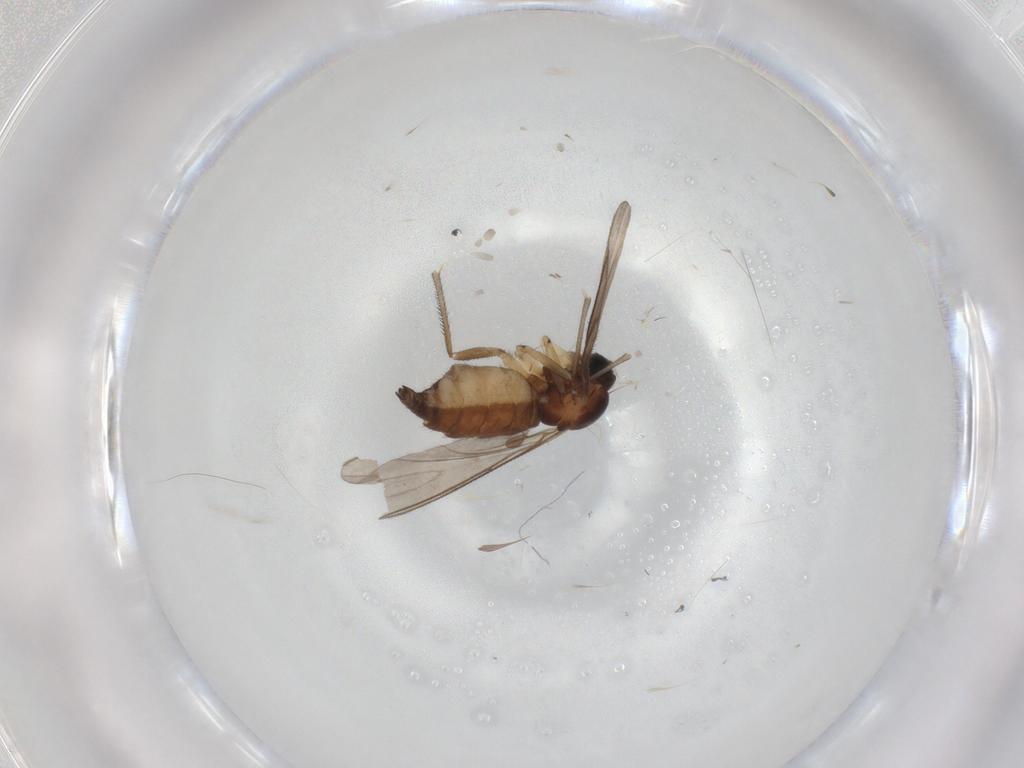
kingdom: Animalia
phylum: Arthropoda
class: Insecta
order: Diptera
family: Sciaridae
